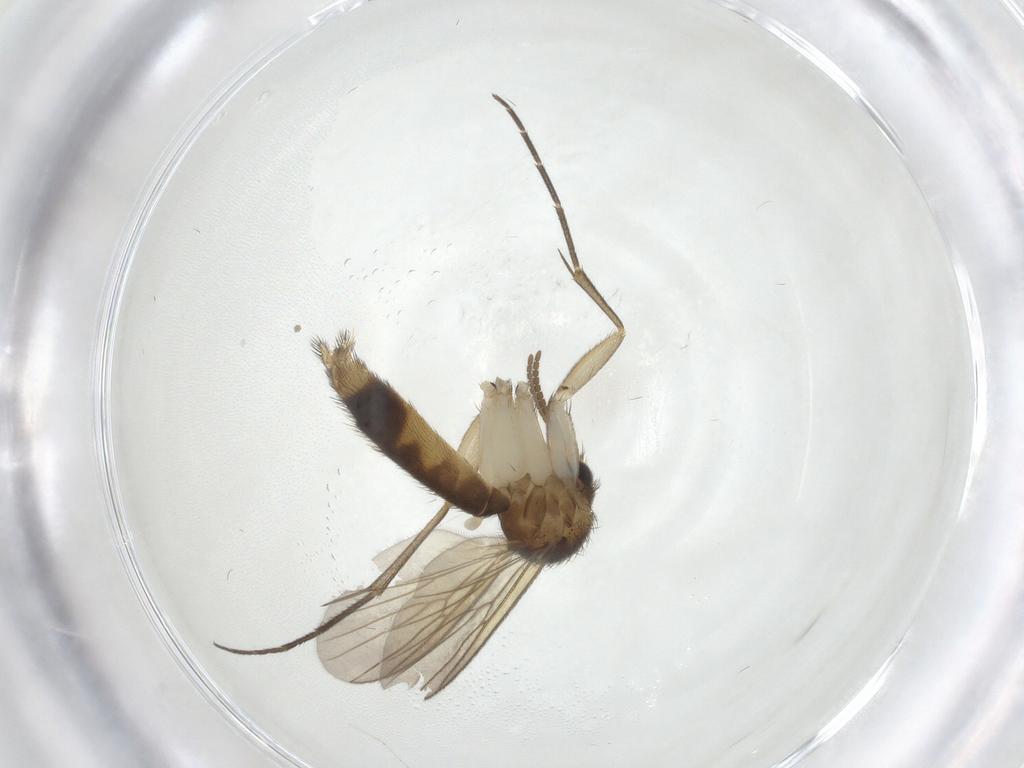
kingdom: Animalia
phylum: Arthropoda
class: Insecta
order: Diptera
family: Mycetophilidae
